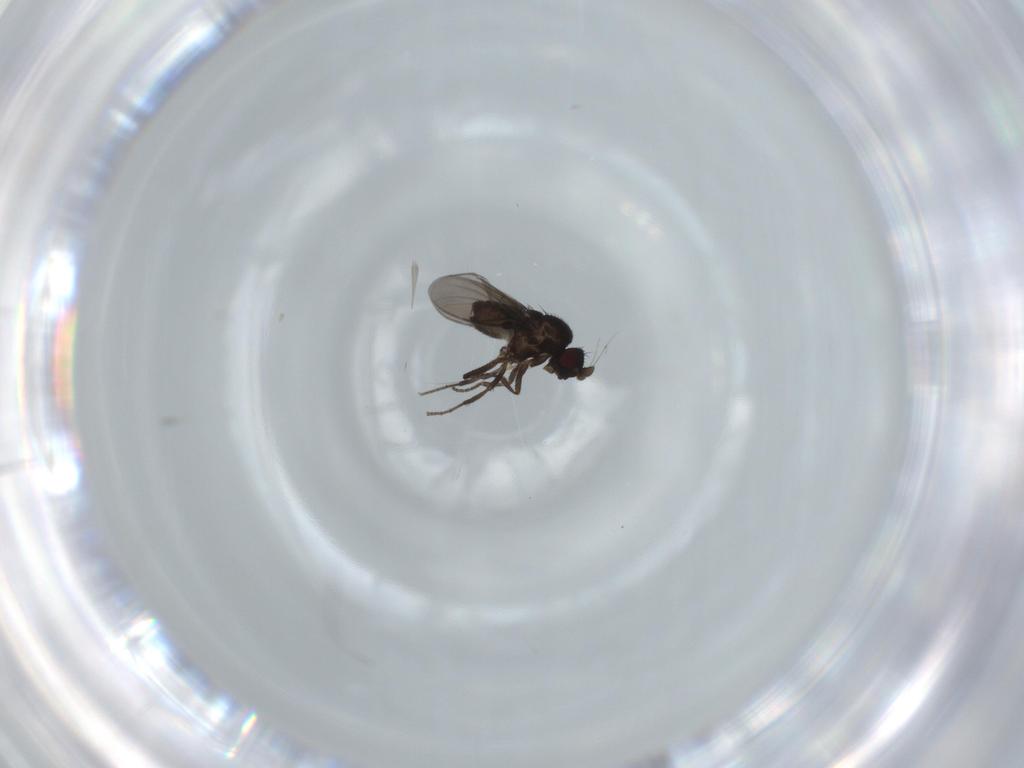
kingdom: Animalia
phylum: Arthropoda
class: Insecta
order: Diptera
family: Sphaeroceridae
